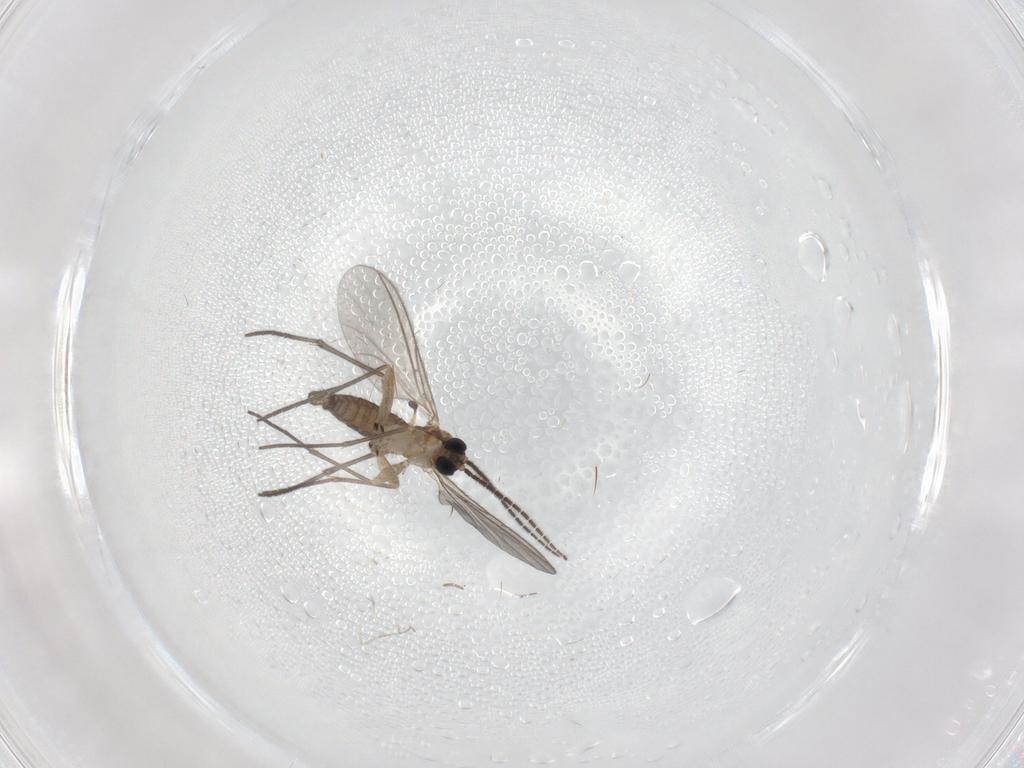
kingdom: Animalia
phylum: Arthropoda
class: Insecta
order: Diptera
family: Sciaridae
